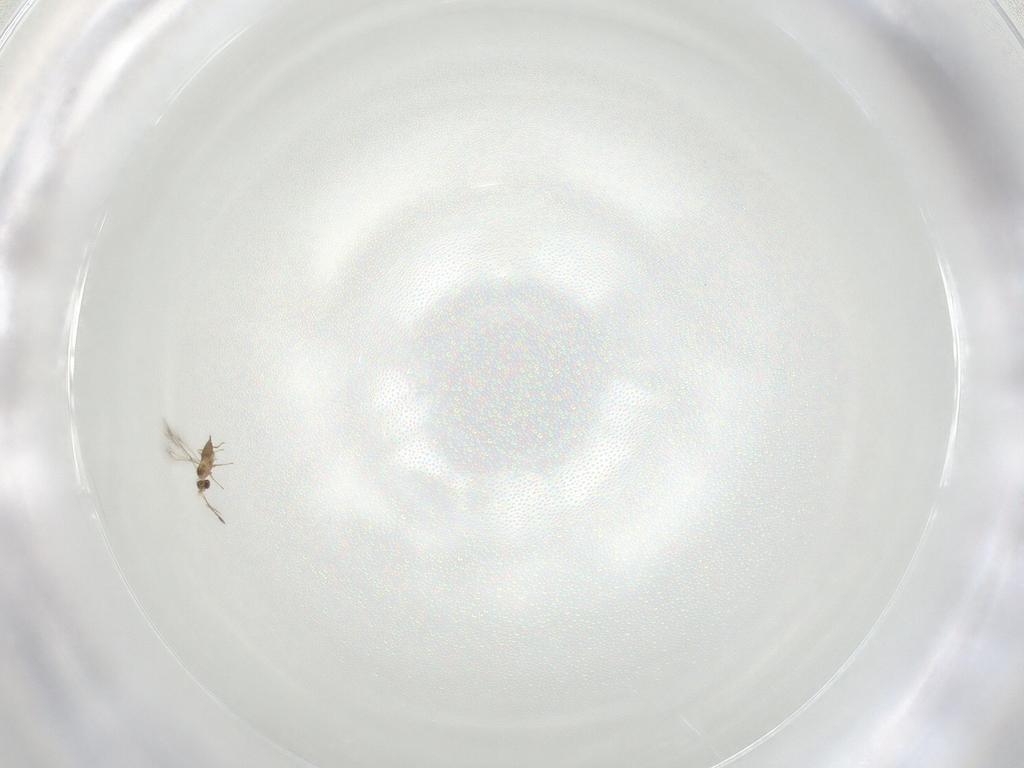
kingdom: Animalia
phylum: Arthropoda
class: Insecta
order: Hymenoptera
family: Mymaridae
